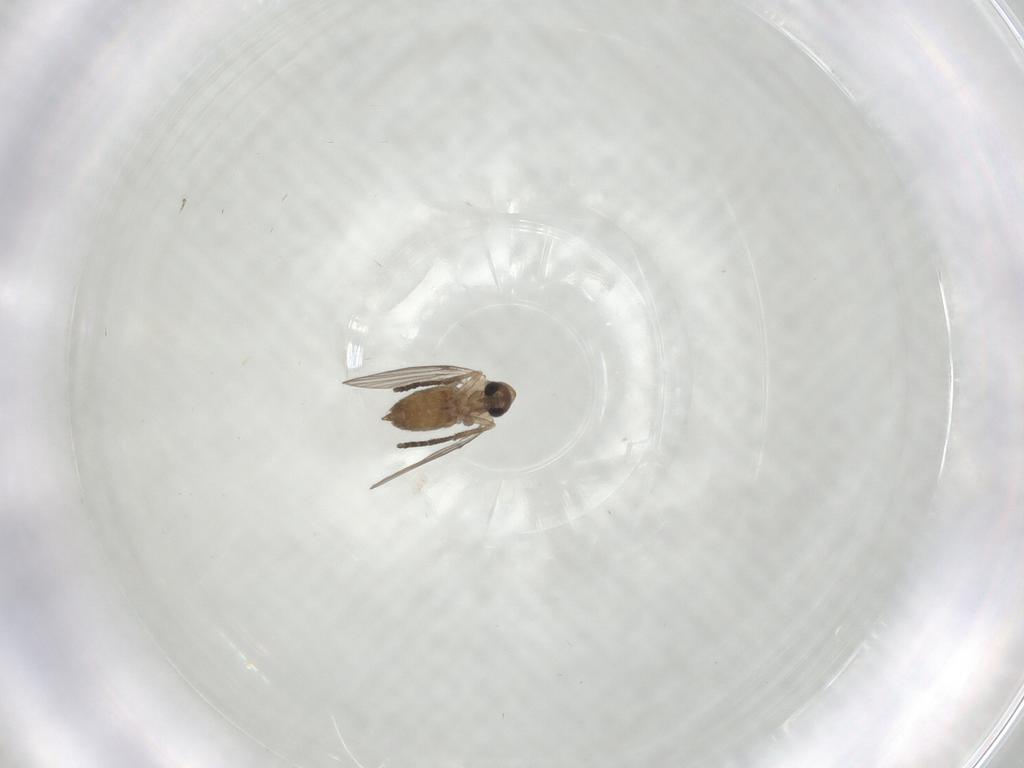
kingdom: Animalia
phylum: Arthropoda
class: Insecta
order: Diptera
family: Psychodidae
